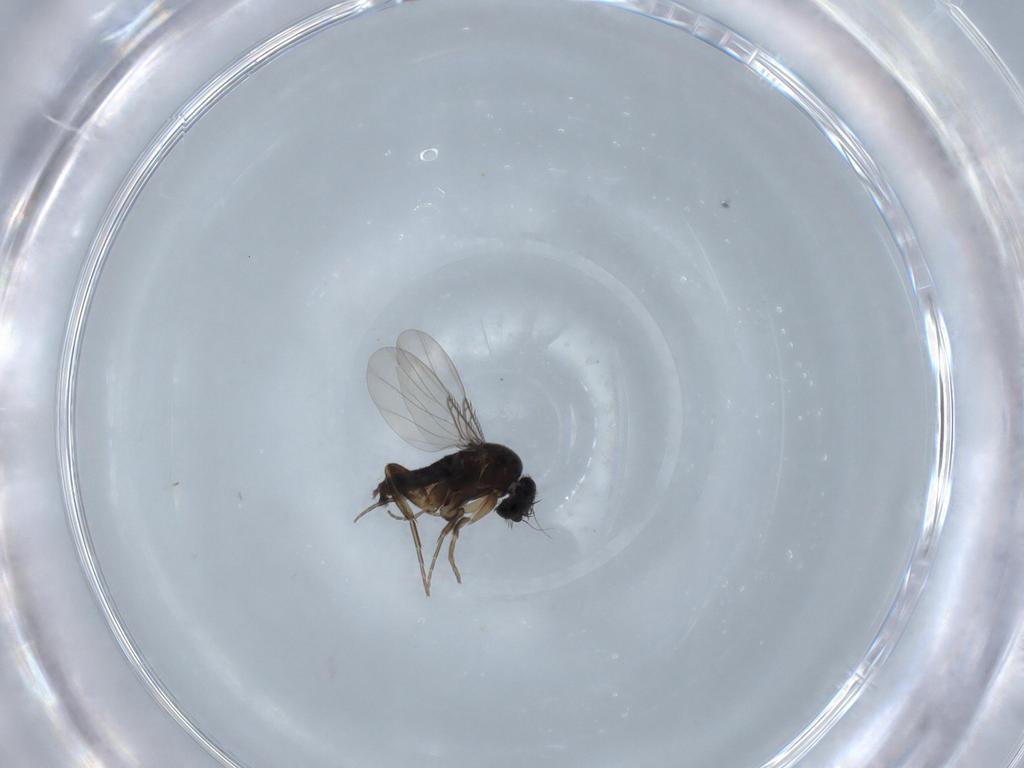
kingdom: Animalia
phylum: Arthropoda
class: Insecta
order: Diptera
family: Phoridae
